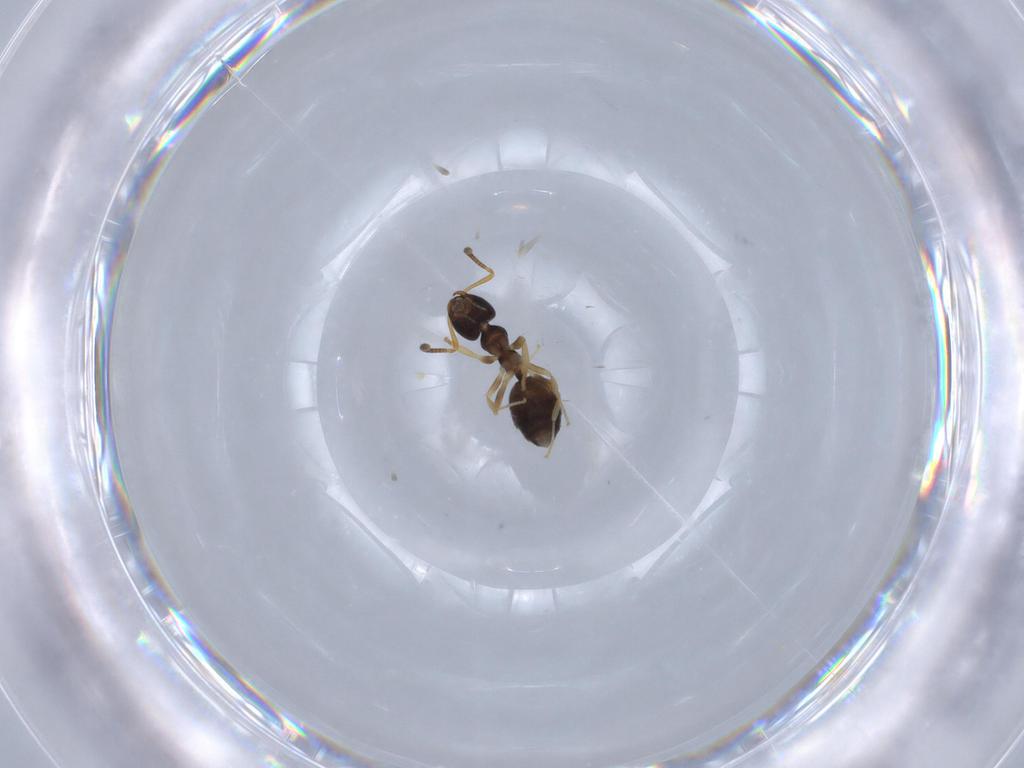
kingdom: Animalia
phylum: Arthropoda
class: Insecta
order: Hymenoptera
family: Formicidae
